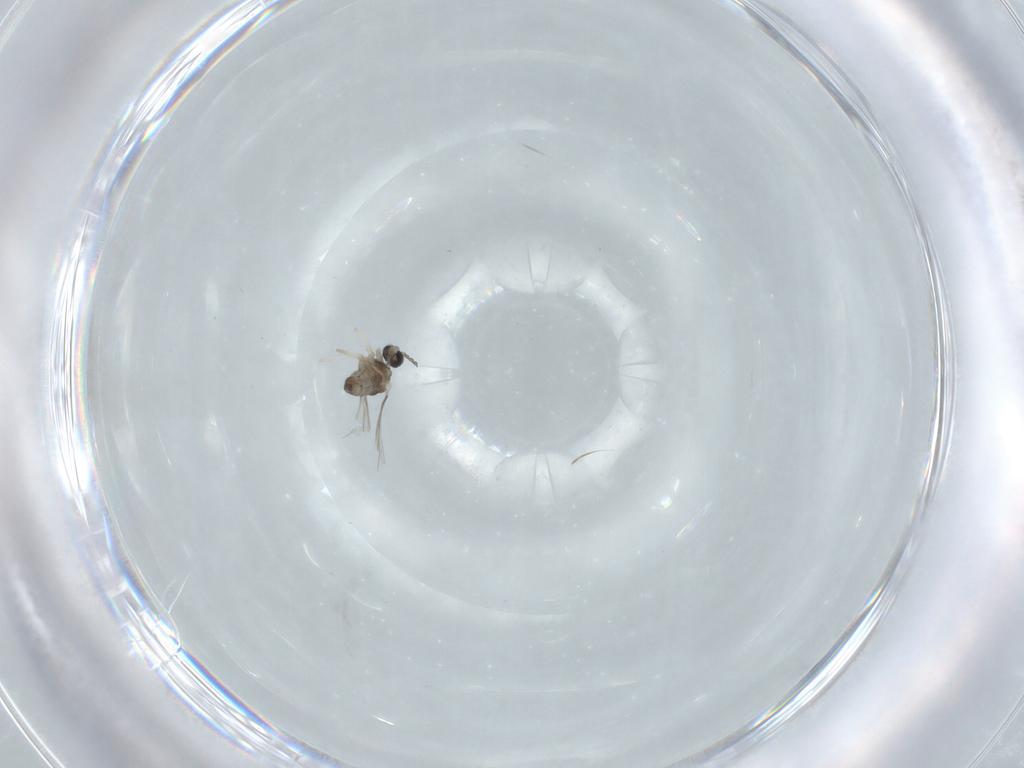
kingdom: Animalia
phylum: Arthropoda
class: Insecta
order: Diptera
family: Cecidomyiidae
